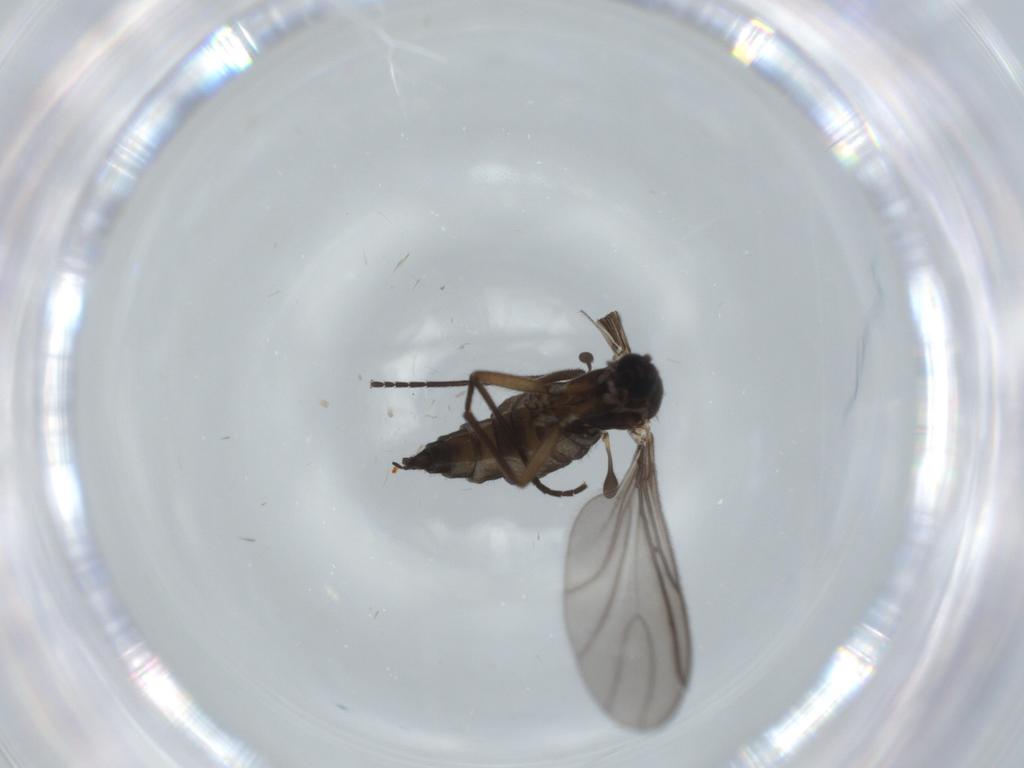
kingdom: Animalia
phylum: Arthropoda
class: Insecta
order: Diptera
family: Sciaridae
